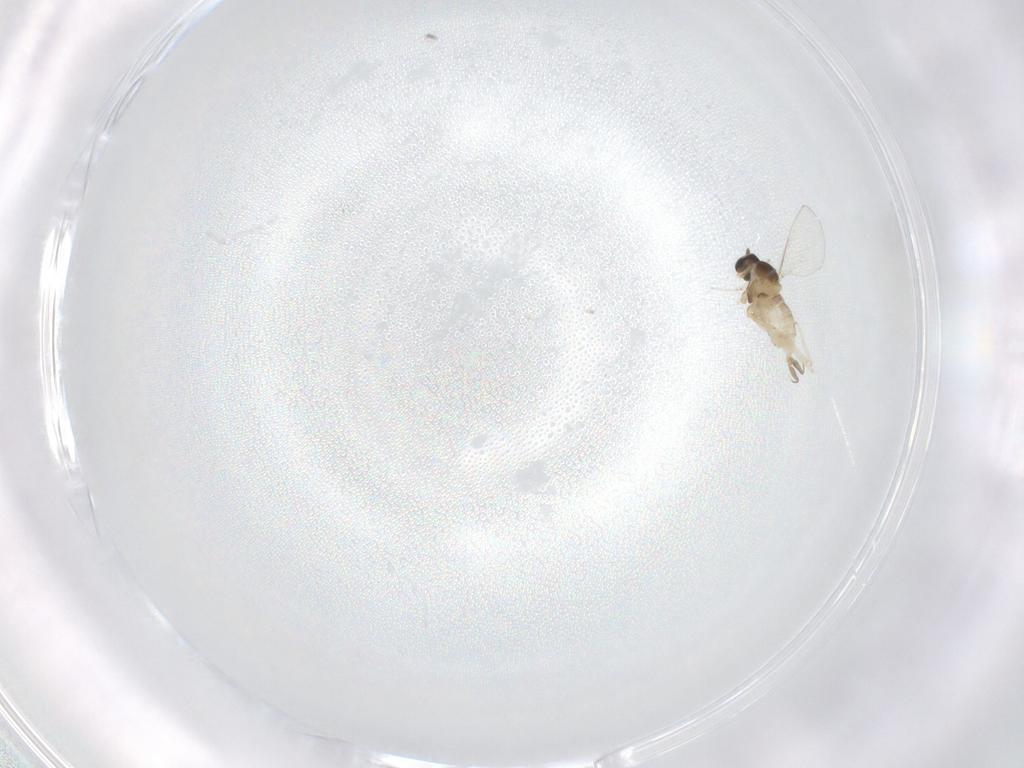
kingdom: Animalia
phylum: Arthropoda
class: Insecta
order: Diptera
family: Cecidomyiidae
